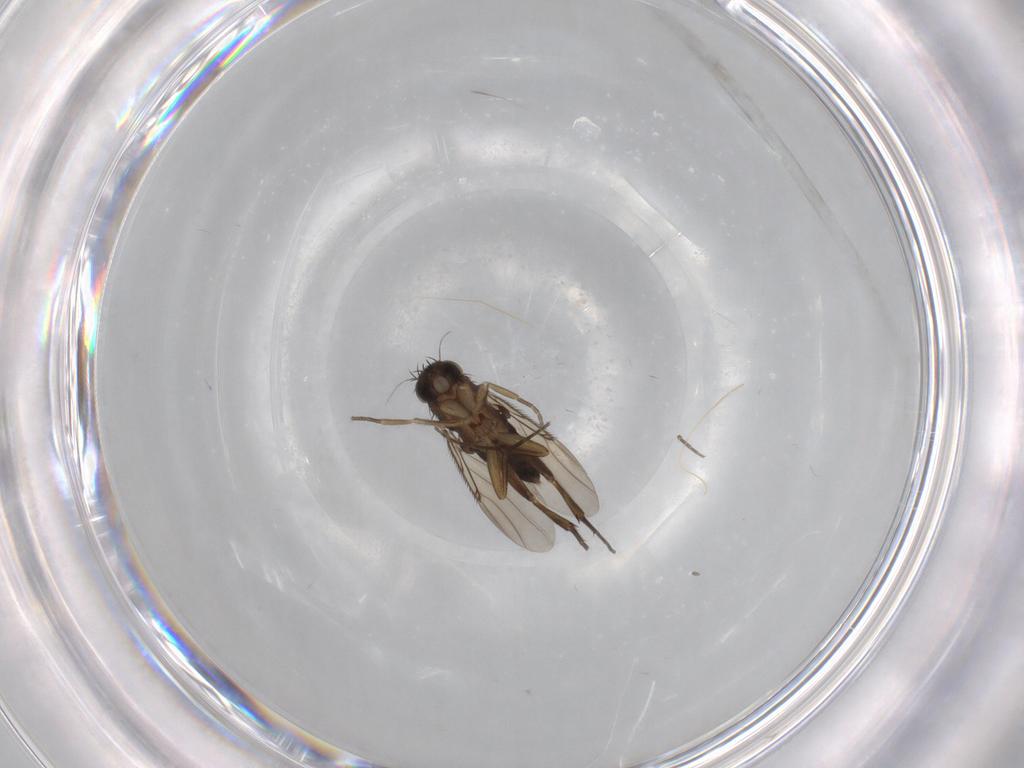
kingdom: Animalia
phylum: Arthropoda
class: Insecta
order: Diptera
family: Phoridae
